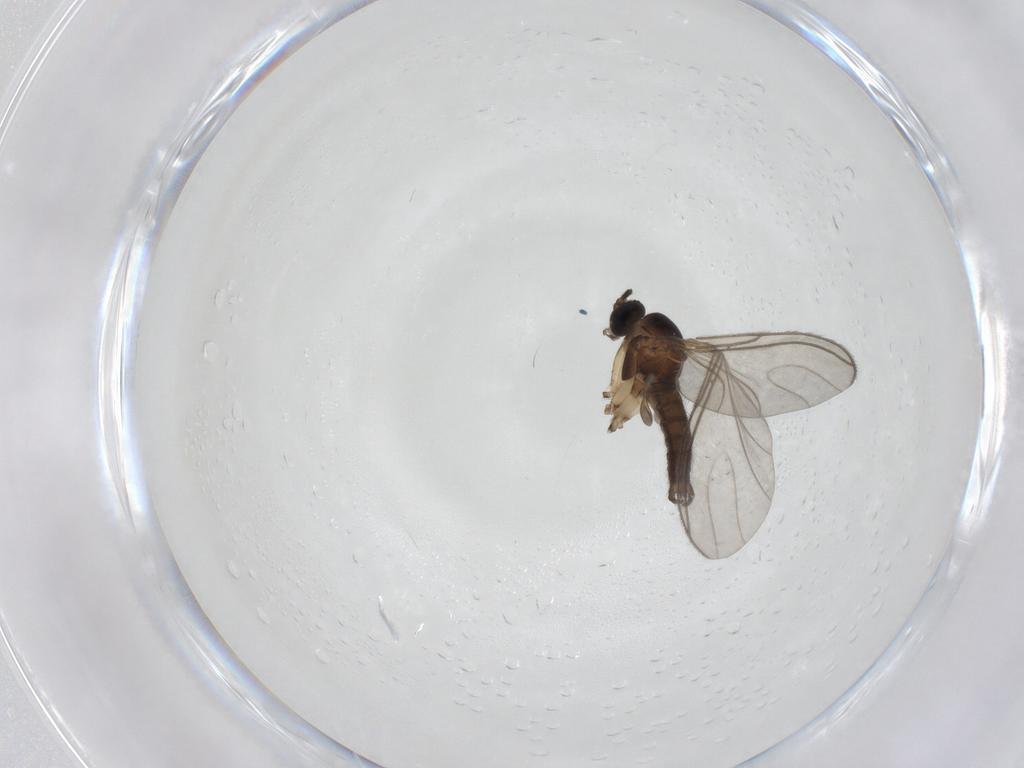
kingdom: Animalia
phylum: Arthropoda
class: Insecta
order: Diptera
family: Sciaridae
